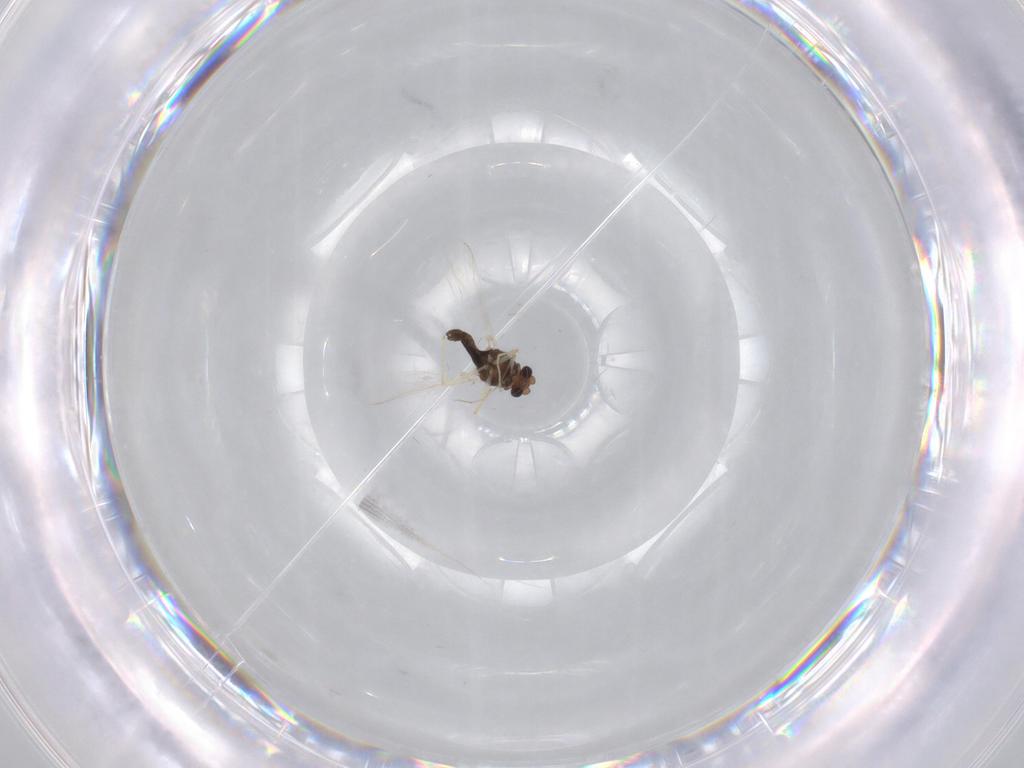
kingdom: Animalia
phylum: Arthropoda
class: Insecta
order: Diptera
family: Chironomidae
